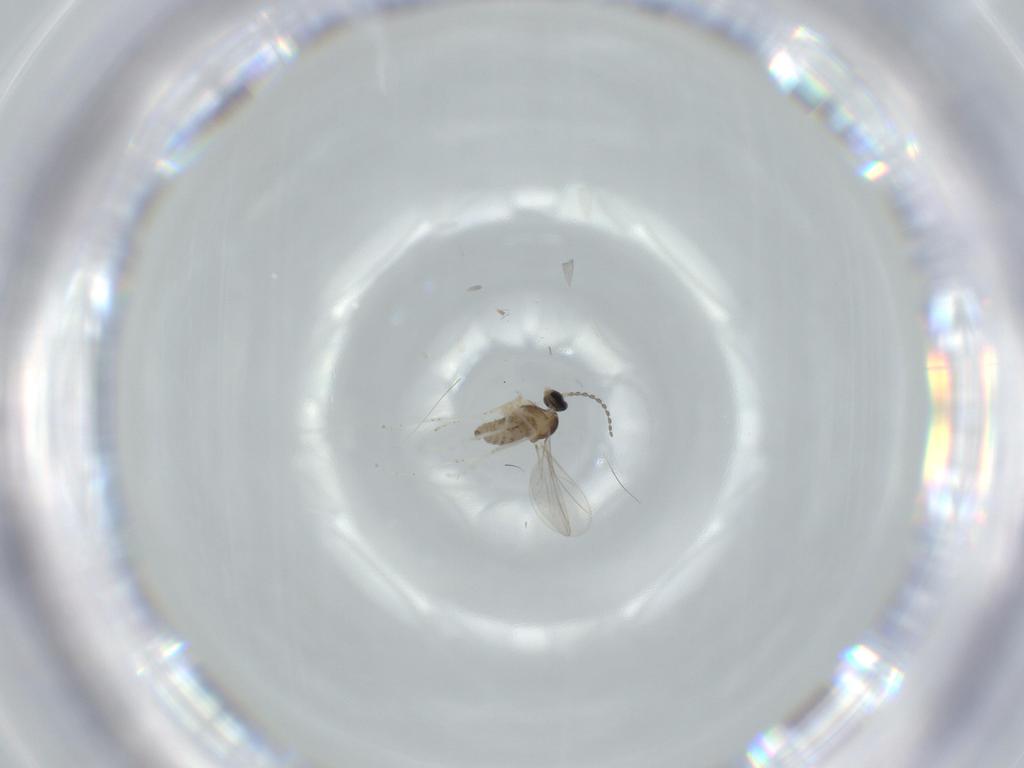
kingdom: Animalia
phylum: Arthropoda
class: Insecta
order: Diptera
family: Cecidomyiidae
